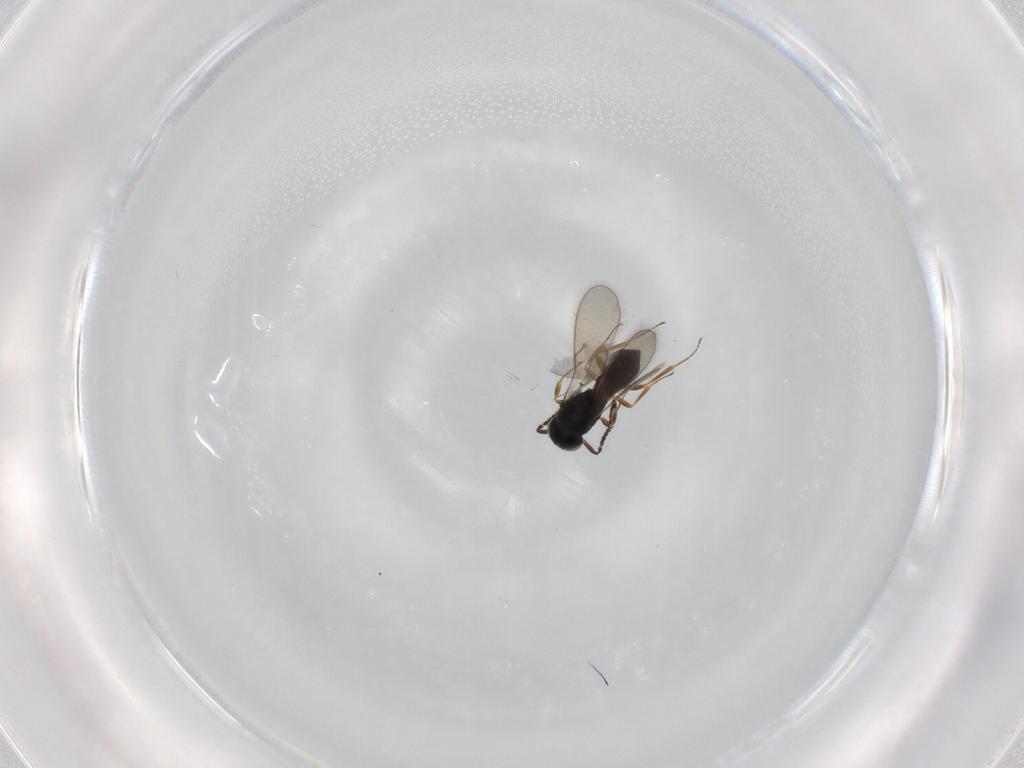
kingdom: Animalia
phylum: Arthropoda
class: Insecta
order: Hymenoptera
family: Scelionidae
